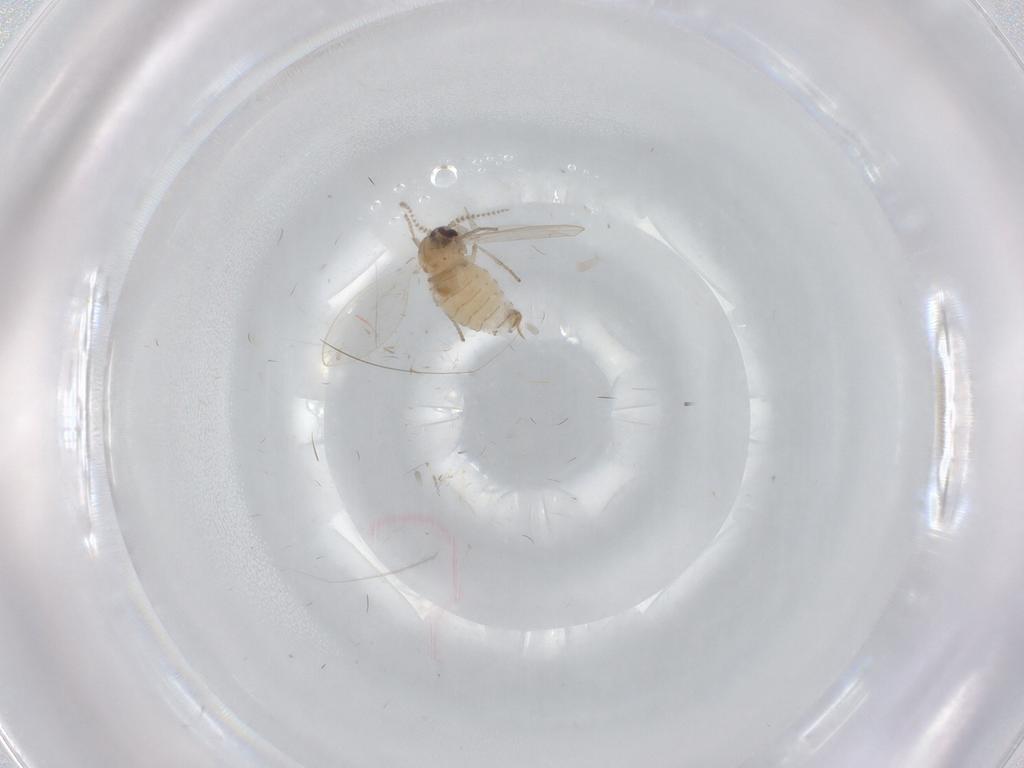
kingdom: Animalia
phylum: Arthropoda
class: Insecta
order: Diptera
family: Psychodidae
